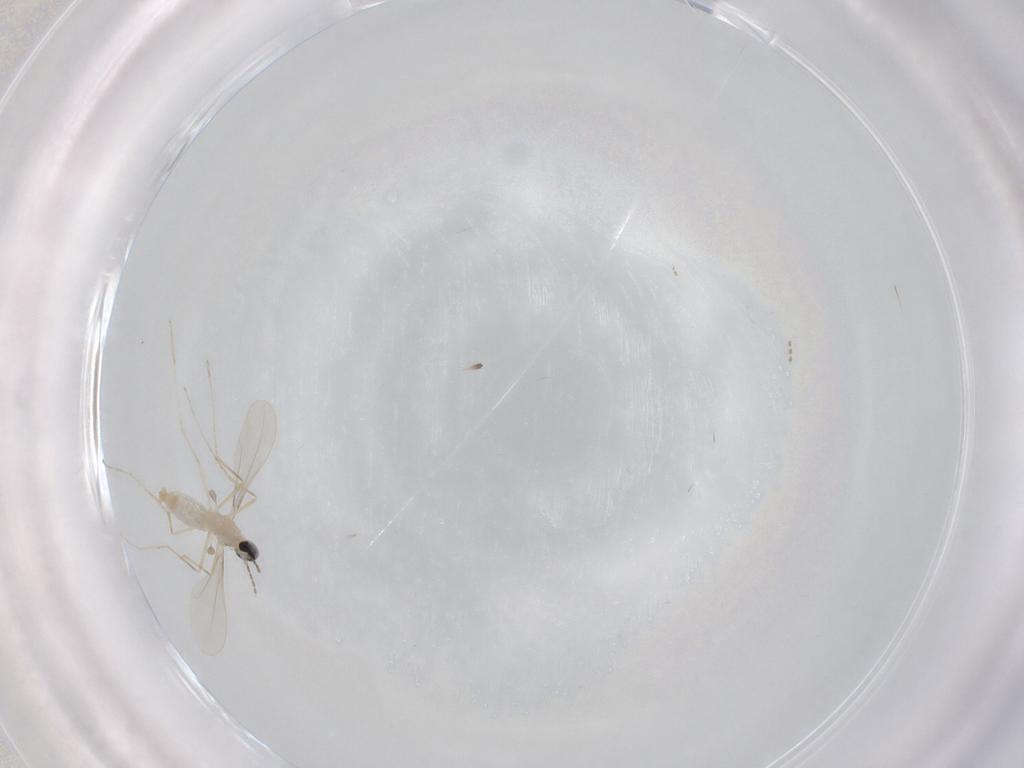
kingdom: Animalia
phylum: Arthropoda
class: Insecta
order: Diptera
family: Cecidomyiidae
